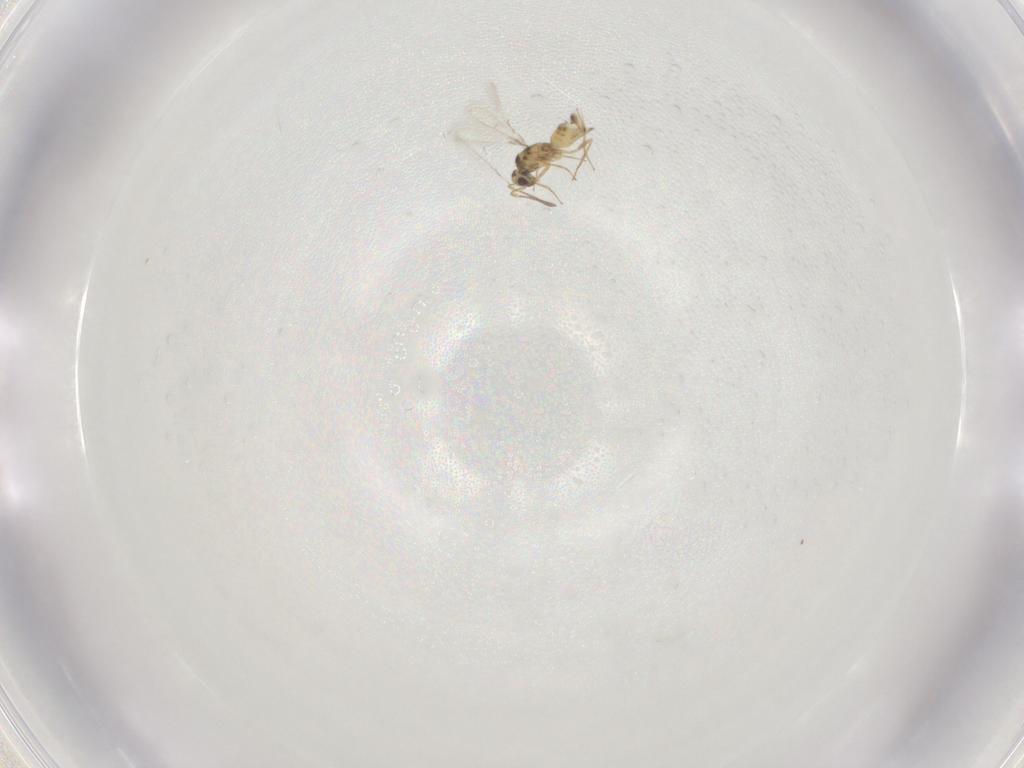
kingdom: Animalia
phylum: Arthropoda
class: Insecta
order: Hymenoptera
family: Mymaridae
